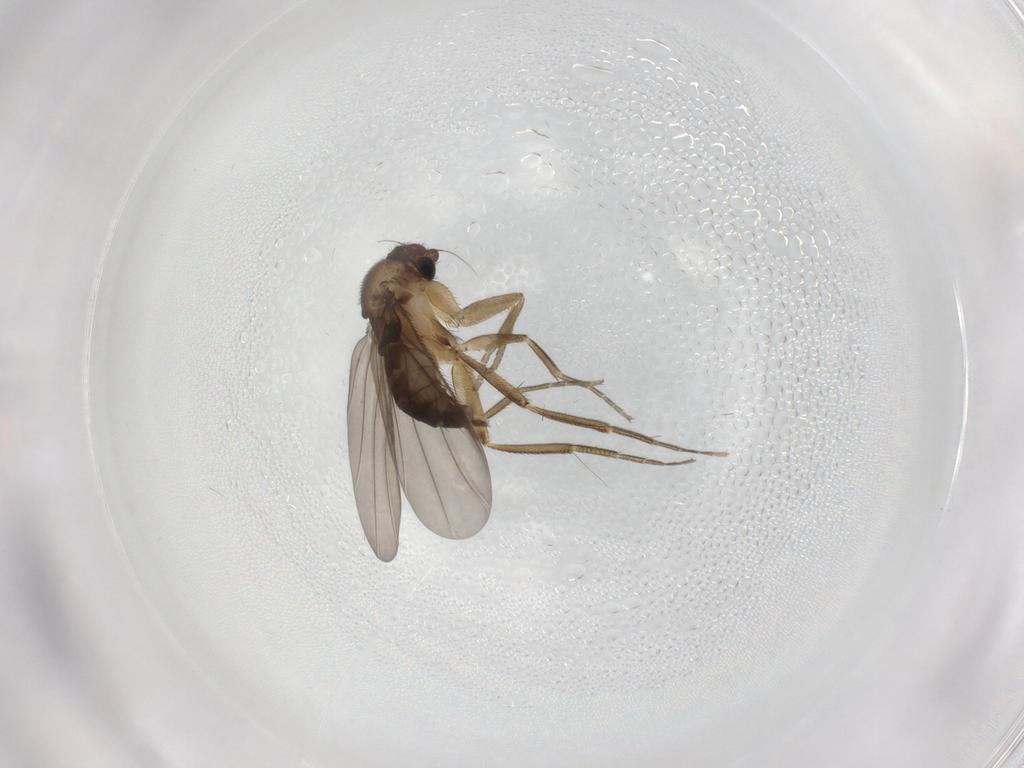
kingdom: Animalia
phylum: Arthropoda
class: Insecta
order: Diptera
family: Phoridae
